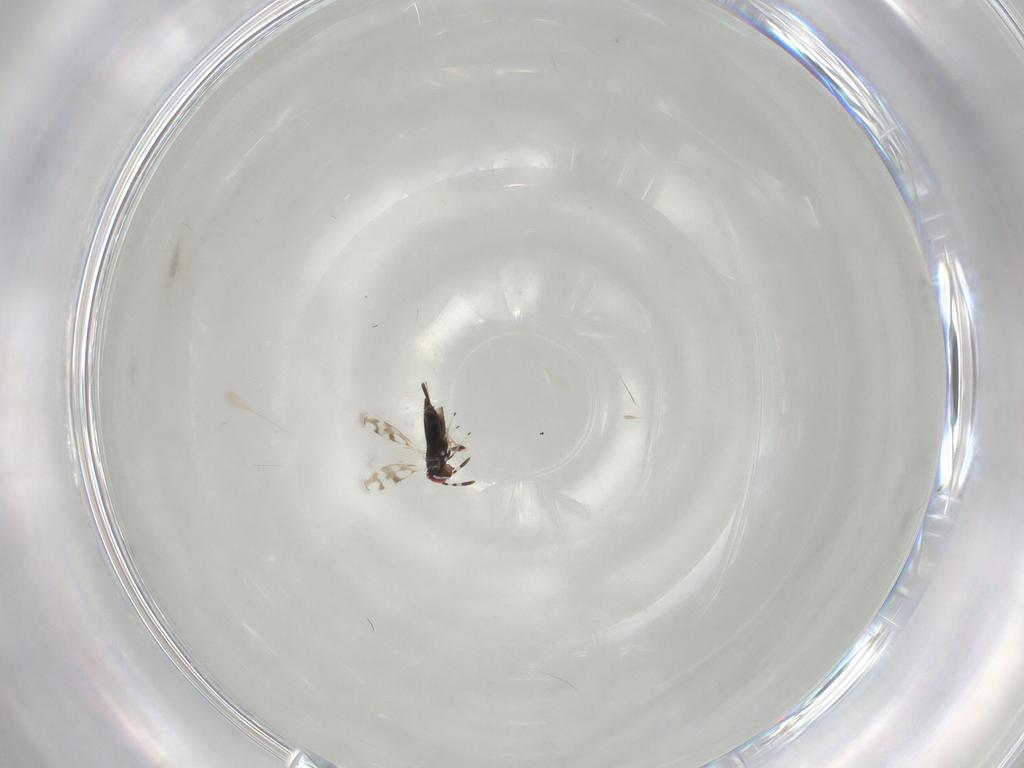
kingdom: Animalia
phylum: Arthropoda
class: Insecta
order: Hymenoptera
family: Azotidae
